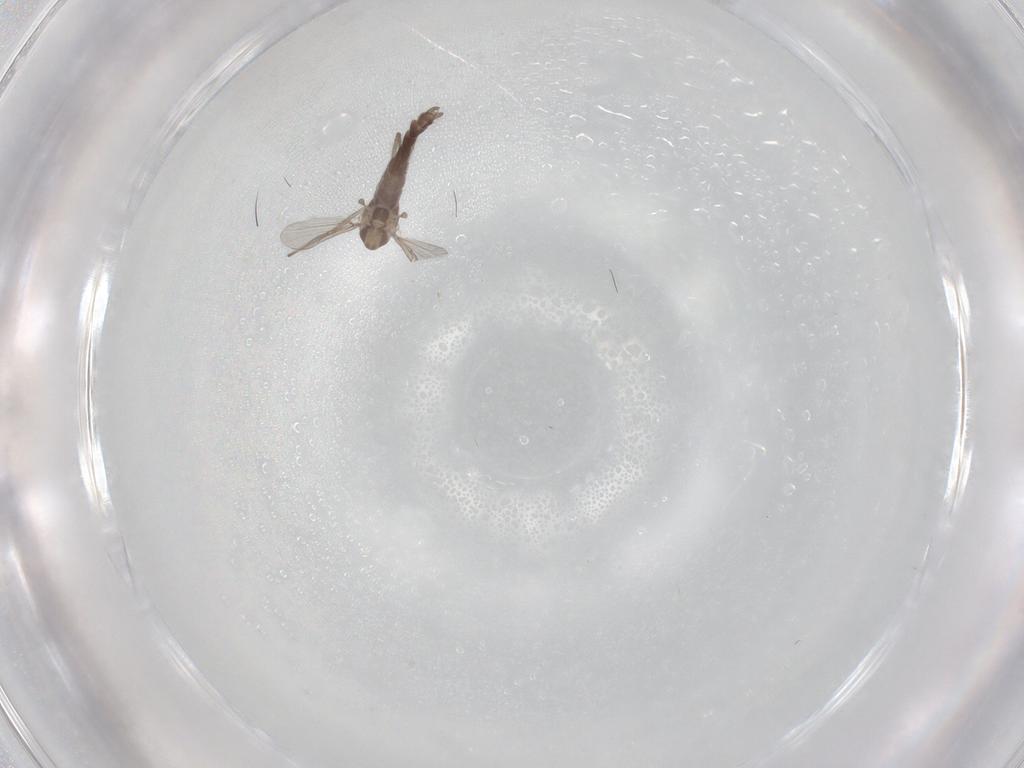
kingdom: Animalia
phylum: Arthropoda
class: Insecta
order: Diptera
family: Chironomidae
